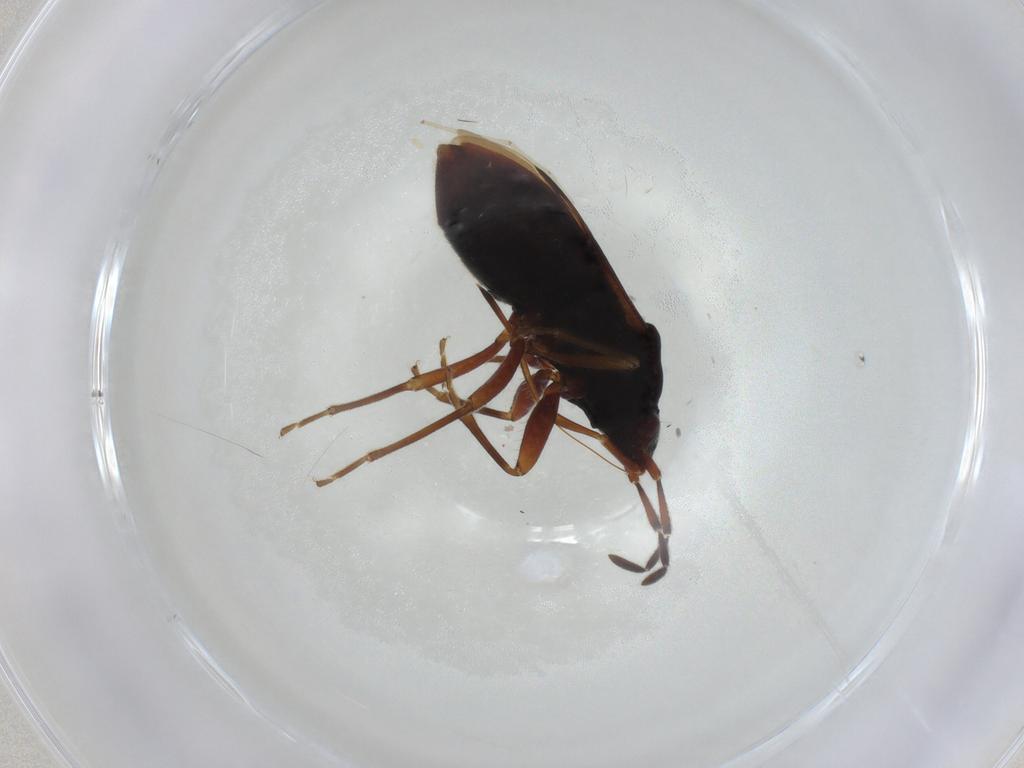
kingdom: Animalia
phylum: Arthropoda
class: Insecta
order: Hemiptera
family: Rhyparochromidae
